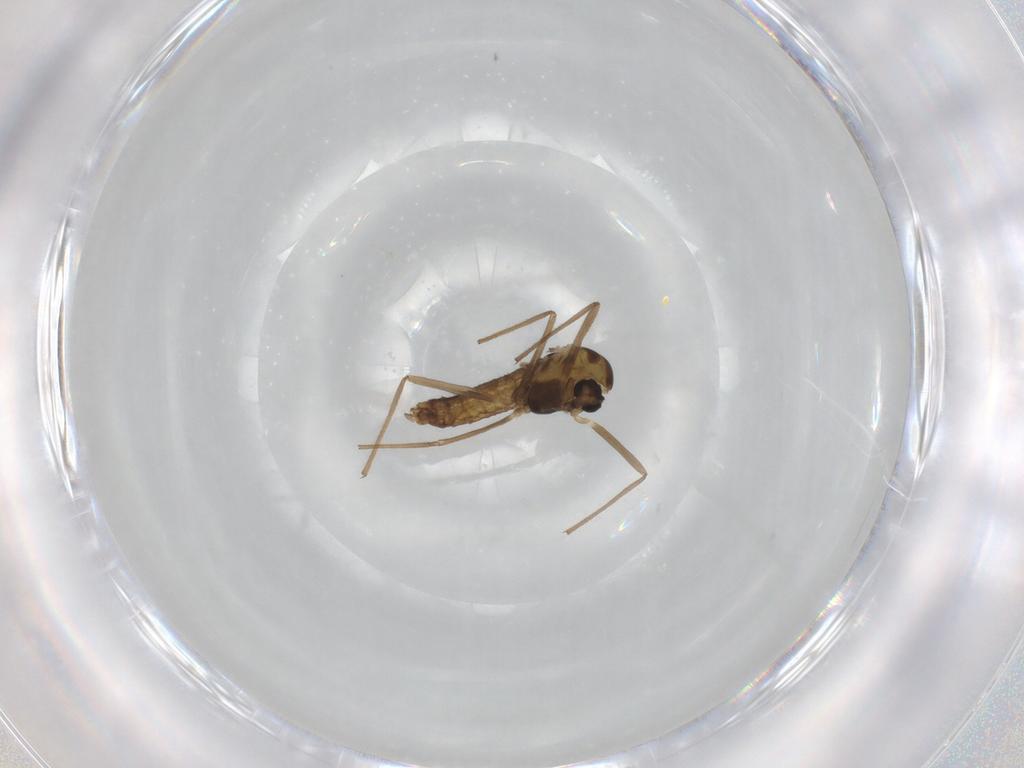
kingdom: Animalia
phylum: Arthropoda
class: Insecta
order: Diptera
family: Chironomidae
